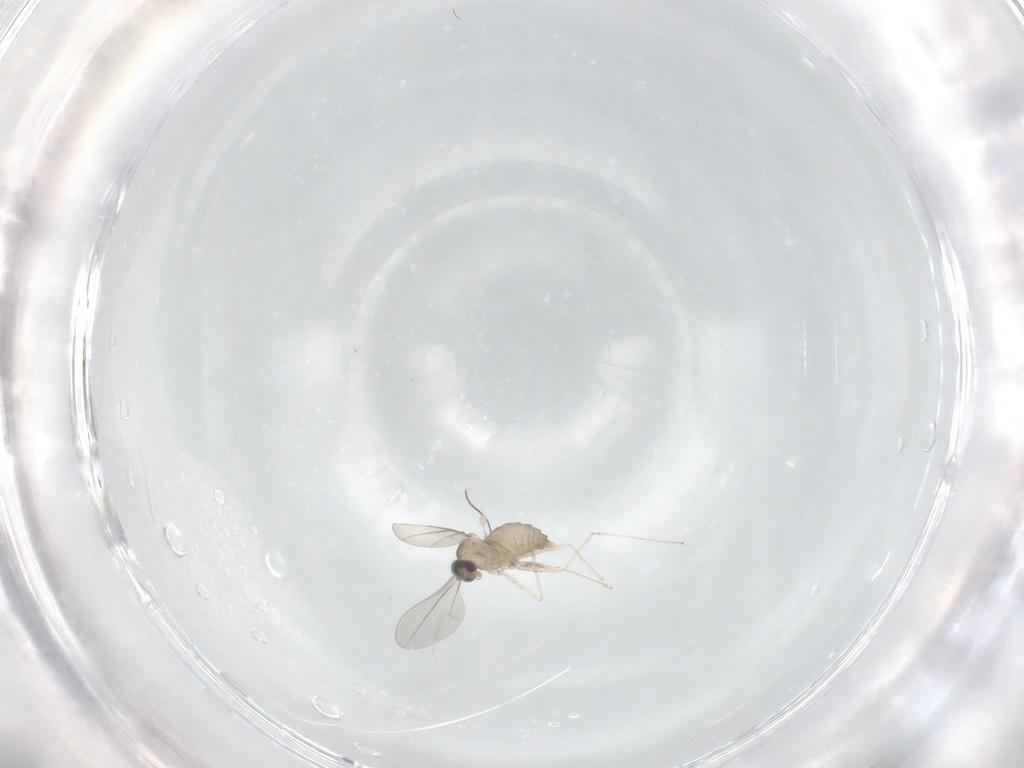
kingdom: Animalia
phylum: Arthropoda
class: Insecta
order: Diptera
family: Phoridae
